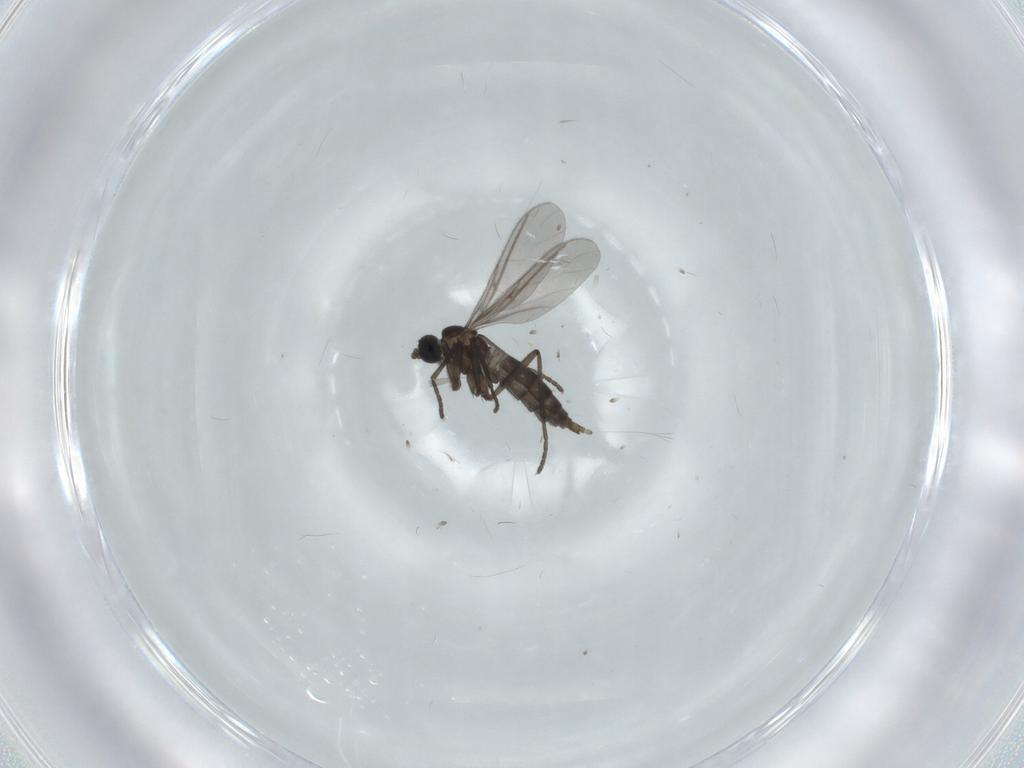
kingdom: Animalia
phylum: Arthropoda
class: Insecta
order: Diptera
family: Sciaridae
